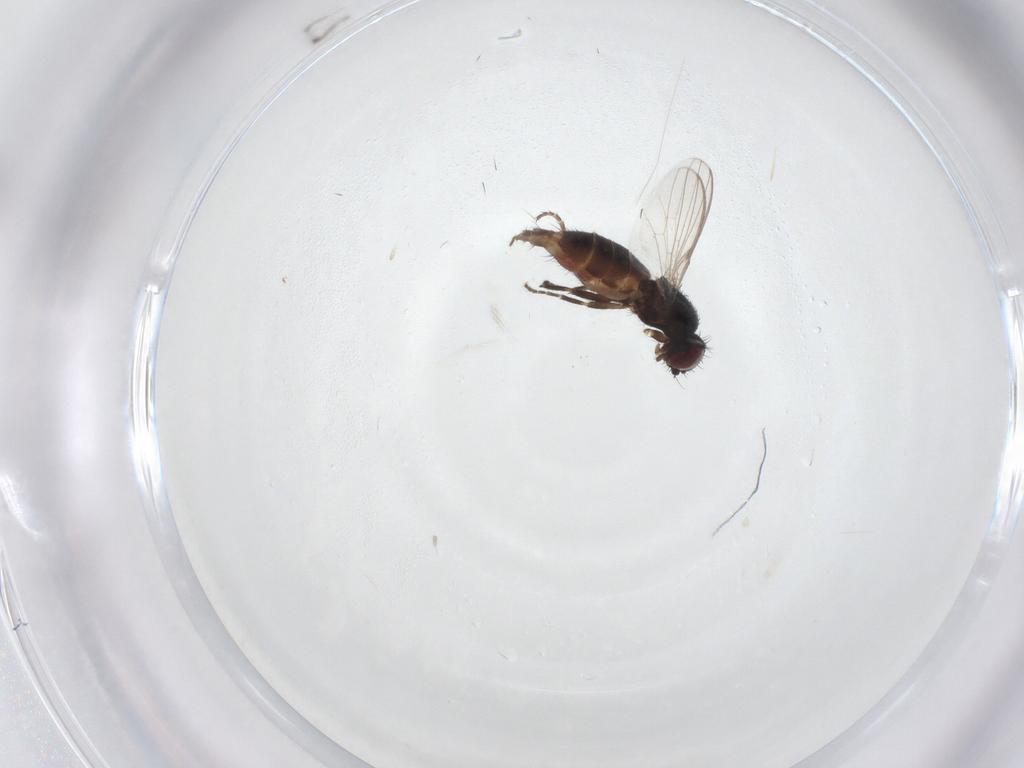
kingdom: Animalia
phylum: Arthropoda
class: Insecta
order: Diptera
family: Milichiidae
